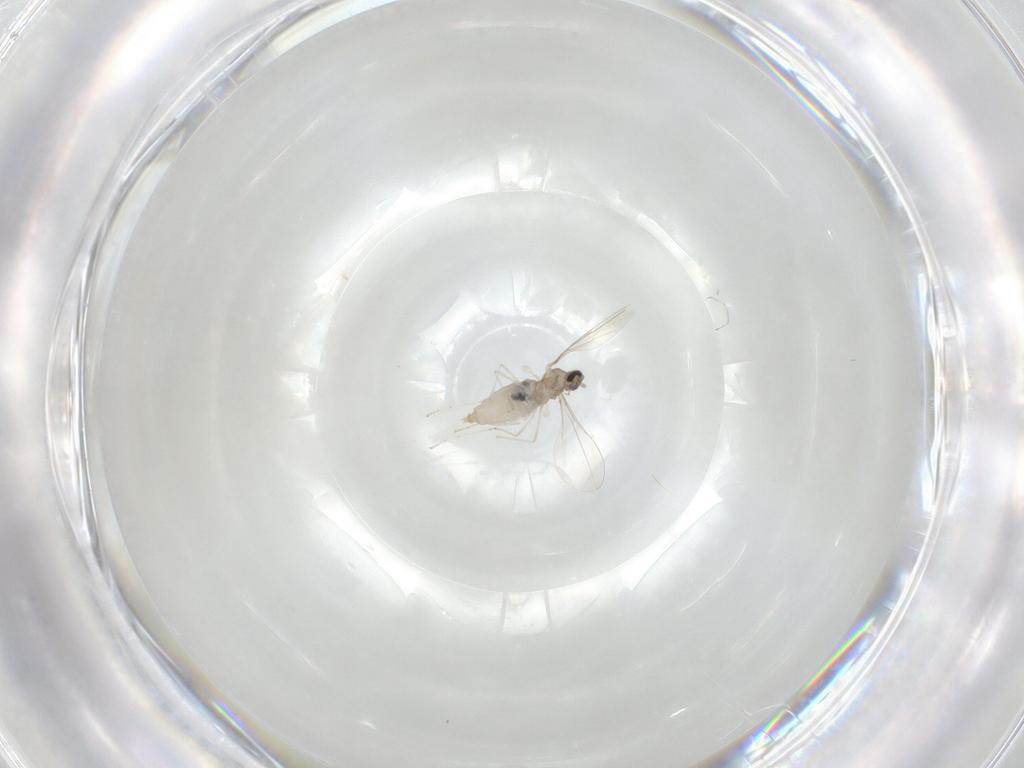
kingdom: Animalia
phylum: Arthropoda
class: Insecta
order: Diptera
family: Cecidomyiidae
